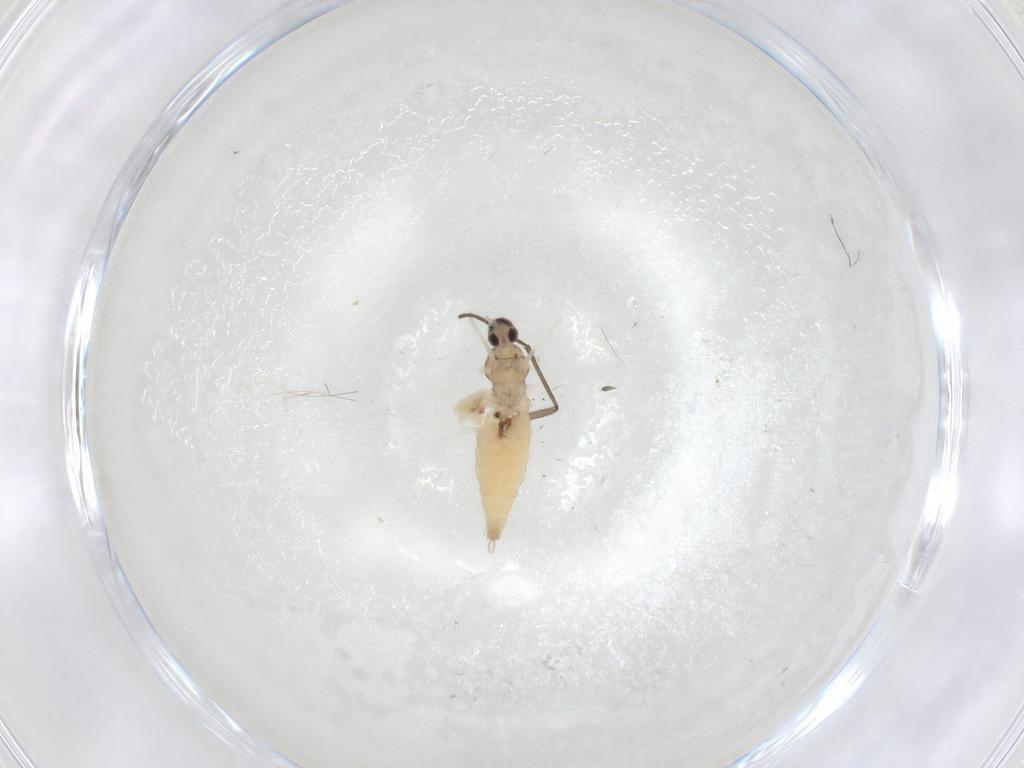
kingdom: Animalia
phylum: Arthropoda
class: Insecta
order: Diptera
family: Cecidomyiidae
